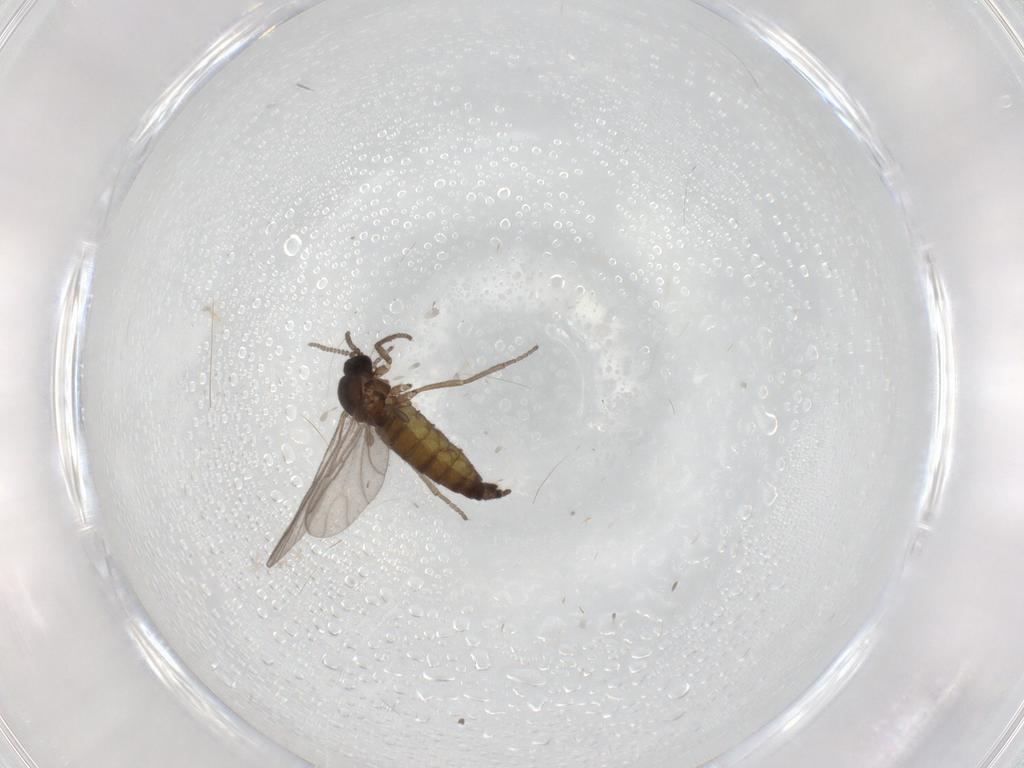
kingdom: Animalia
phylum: Arthropoda
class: Insecta
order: Diptera
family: Sciaridae
